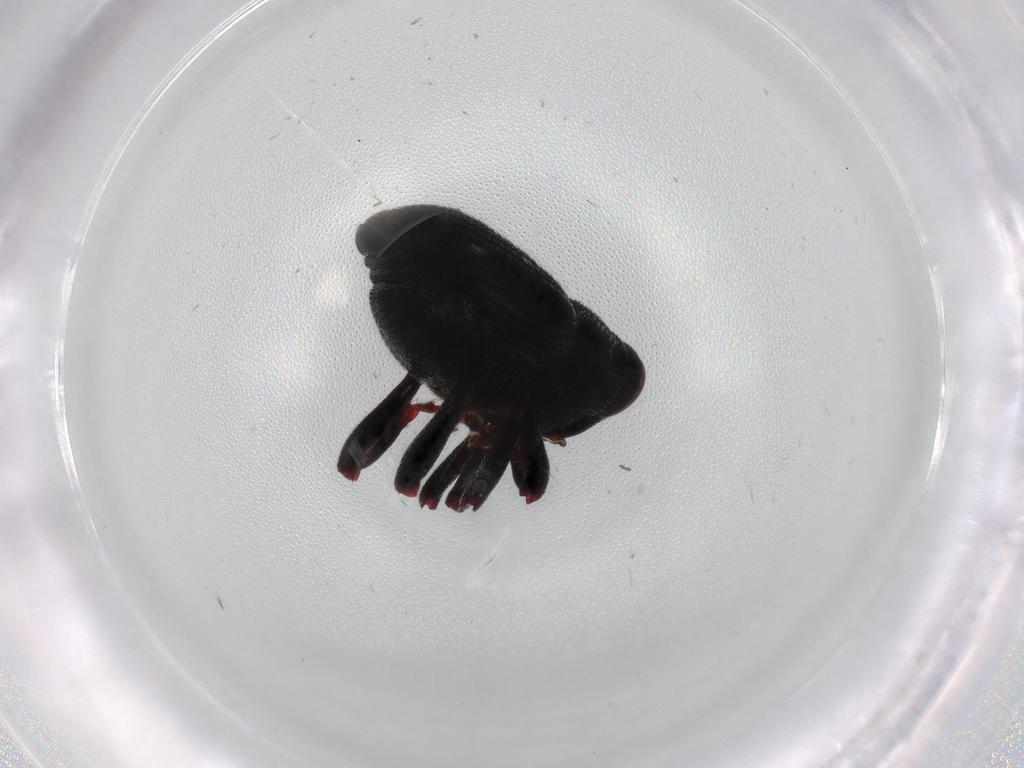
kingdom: Animalia
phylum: Arthropoda
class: Insecta
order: Coleoptera
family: Curculionidae
